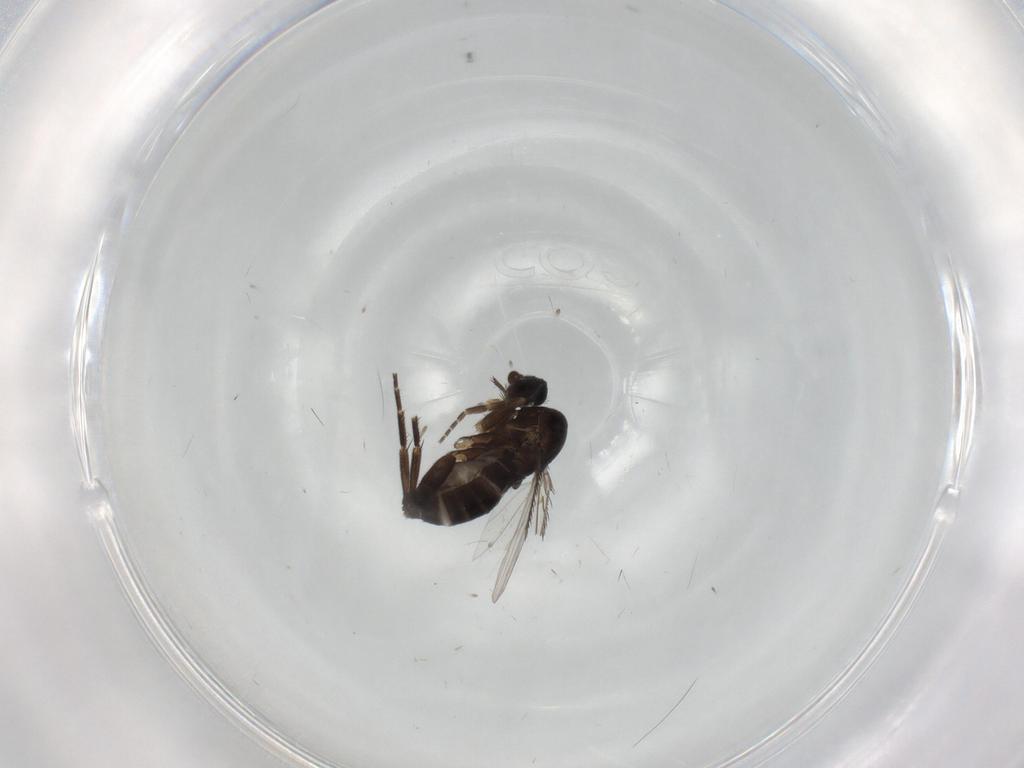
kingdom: Animalia
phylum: Arthropoda
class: Insecta
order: Diptera
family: Phoridae
